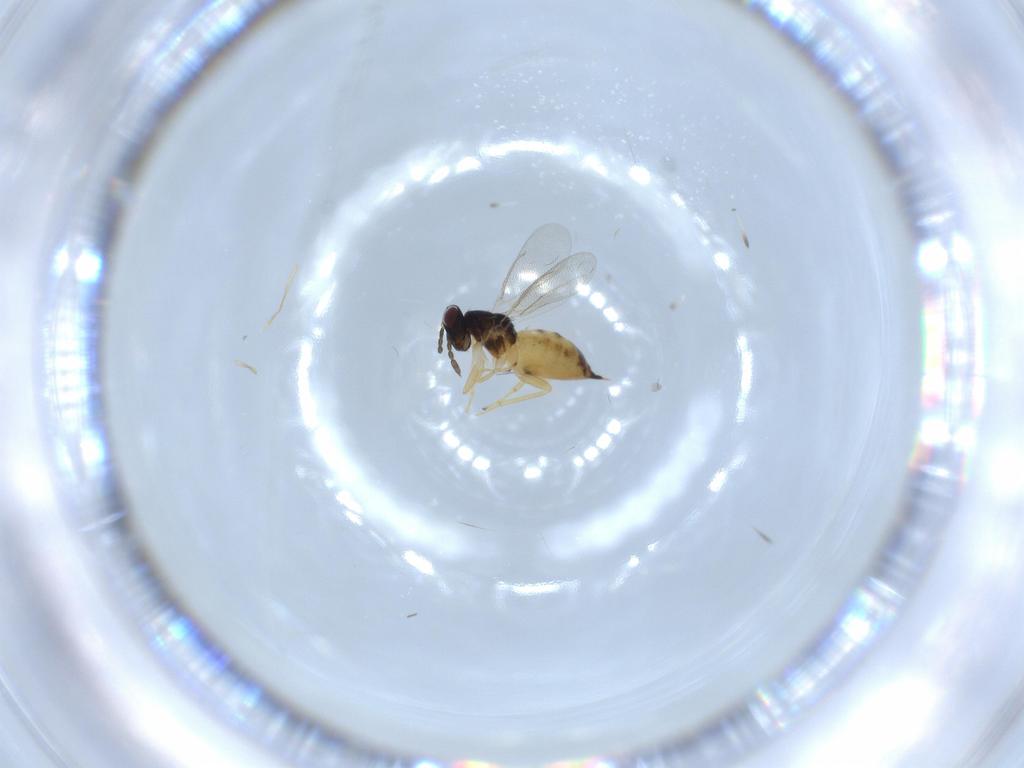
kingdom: Animalia
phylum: Arthropoda
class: Insecta
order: Hymenoptera
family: Eulophidae
